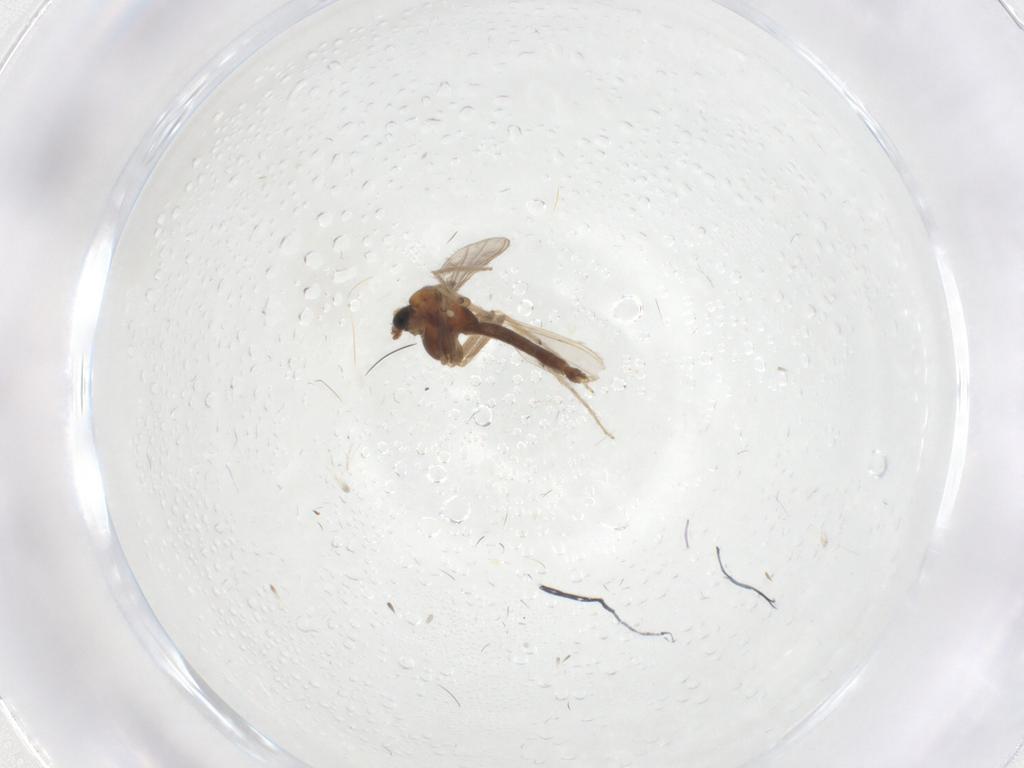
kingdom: Animalia
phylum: Arthropoda
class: Insecta
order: Diptera
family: Chironomidae
